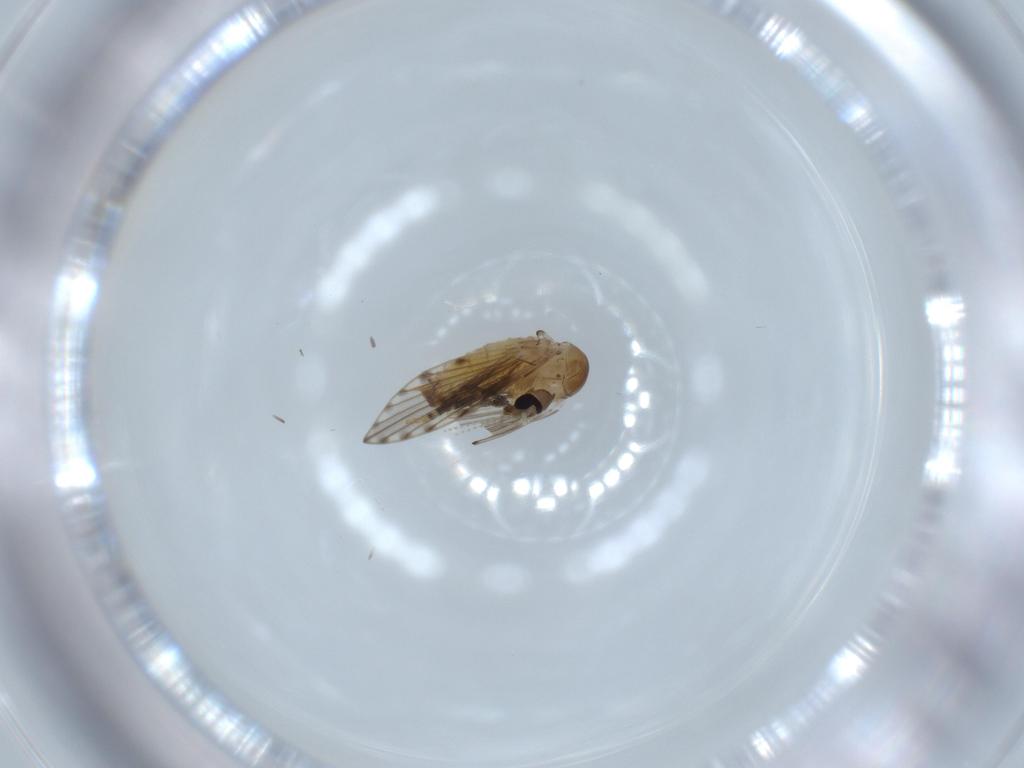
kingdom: Animalia
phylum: Arthropoda
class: Insecta
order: Diptera
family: Psychodidae
